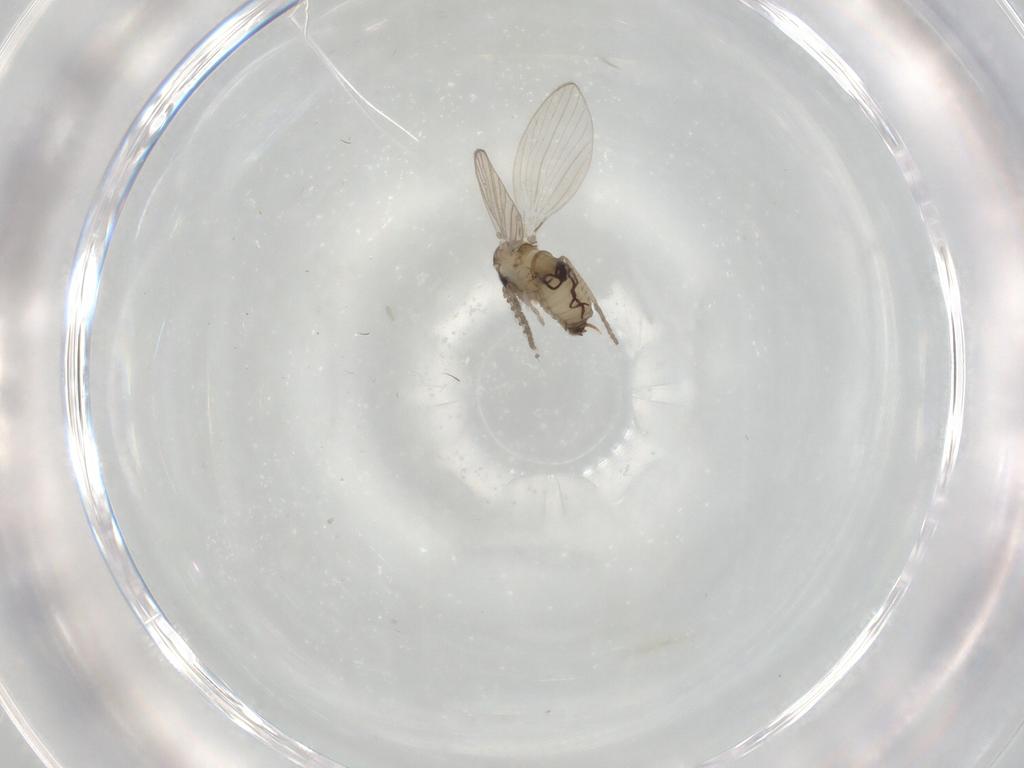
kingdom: Animalia
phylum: Arthropoda
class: Insecta
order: Diptera
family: Psychodidae
